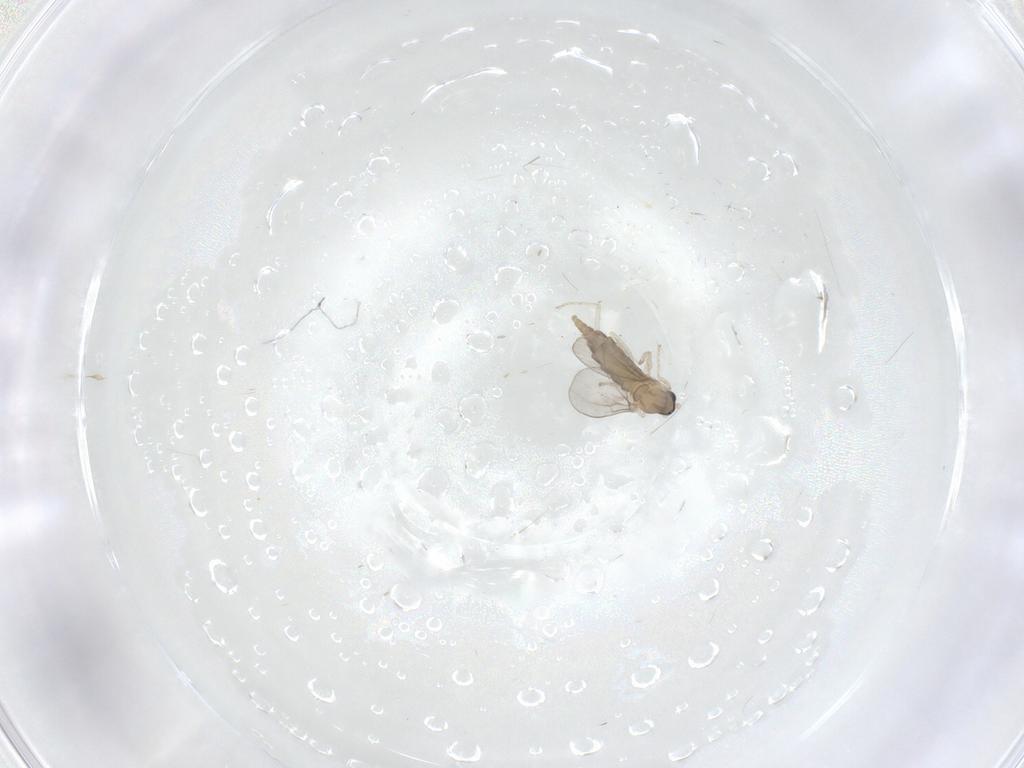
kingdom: Animalia
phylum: Arthropoda
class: Insecta
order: Diptera
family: Cecidomyiidae
